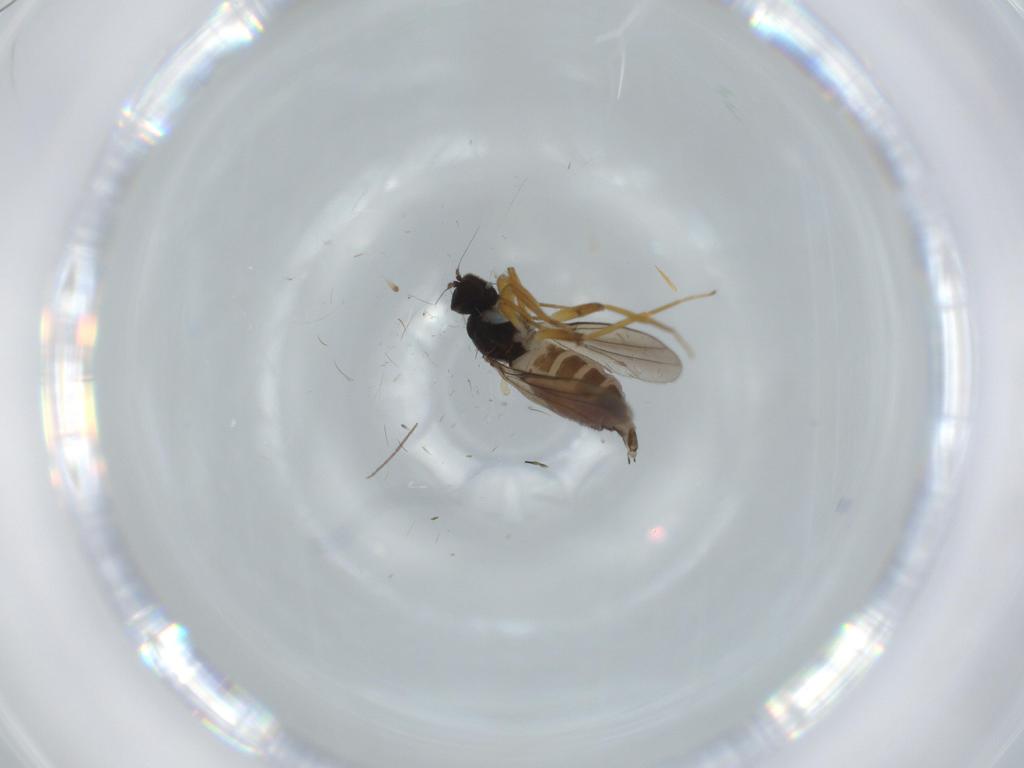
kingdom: Animalia
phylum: Arthropoda
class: Insecta
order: Diptera
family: Hybotidae
